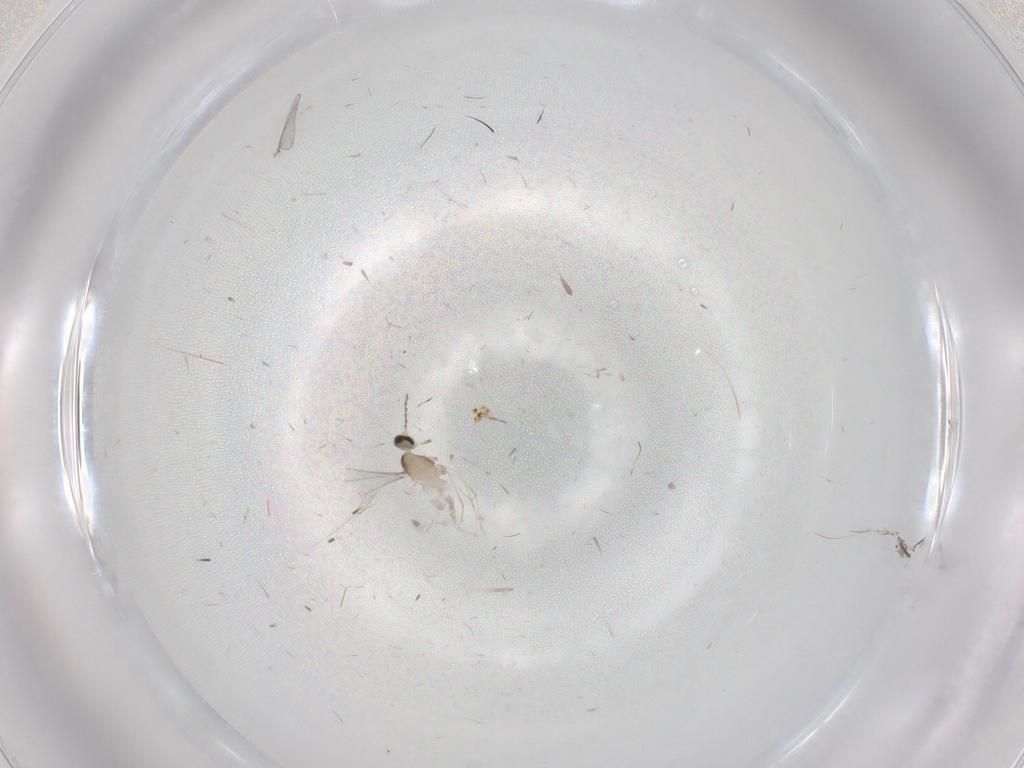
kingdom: Animalia
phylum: Arthropoda
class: Insecta
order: Diptera
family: Cecidomyiidae
